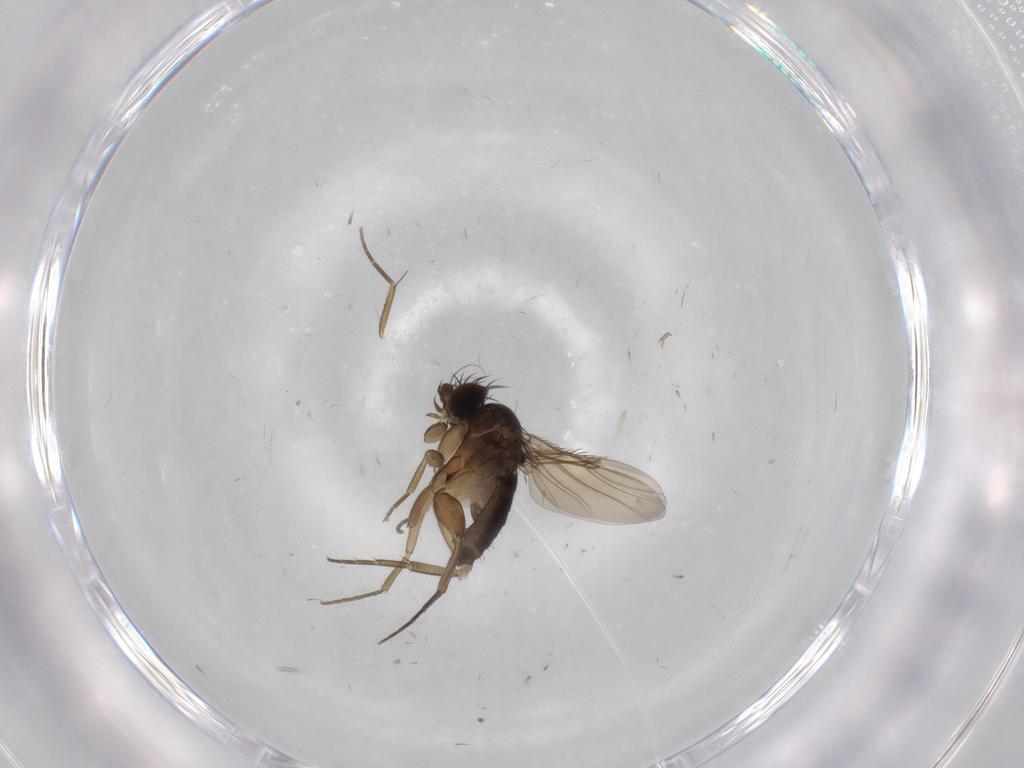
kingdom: Animalia
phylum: Arthropoda
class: Insecta
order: Diptera
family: Phoridae
